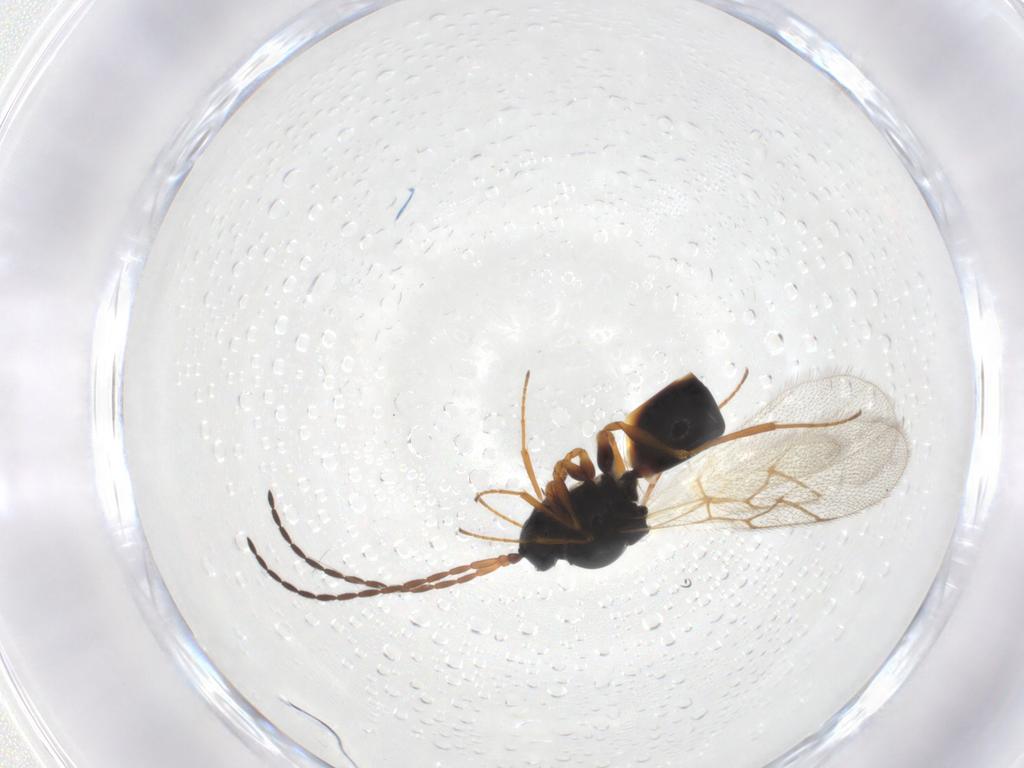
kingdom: Animalia
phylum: Arthropoda
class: Insecta
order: Hymenoptera
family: Figitidae
